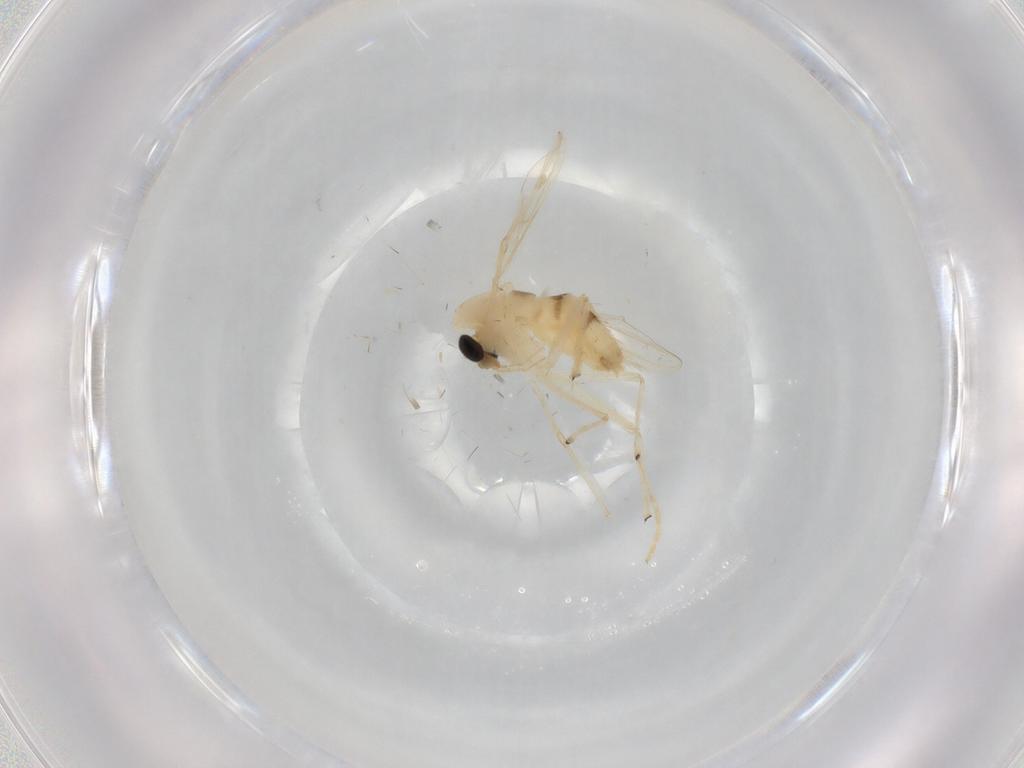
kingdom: Animalia
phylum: Arthropoda
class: Insecta
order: Diptera
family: Chironomidae
